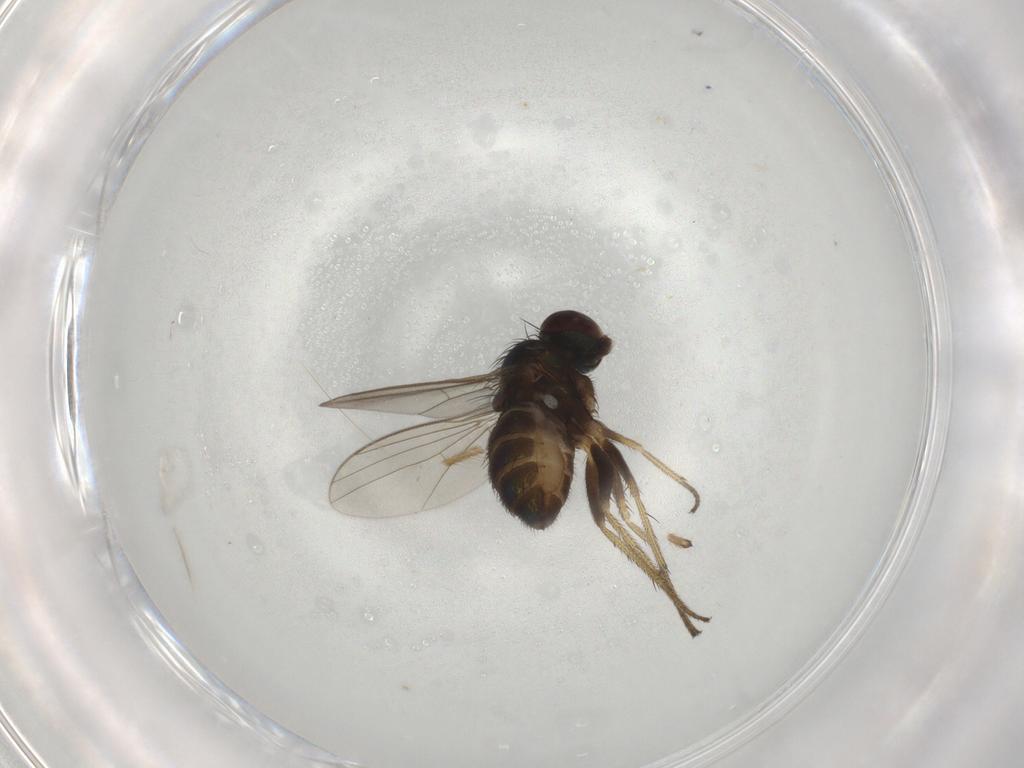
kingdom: Animalia
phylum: Arthropoda
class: Insecta
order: Diptera
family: Chironomidae
